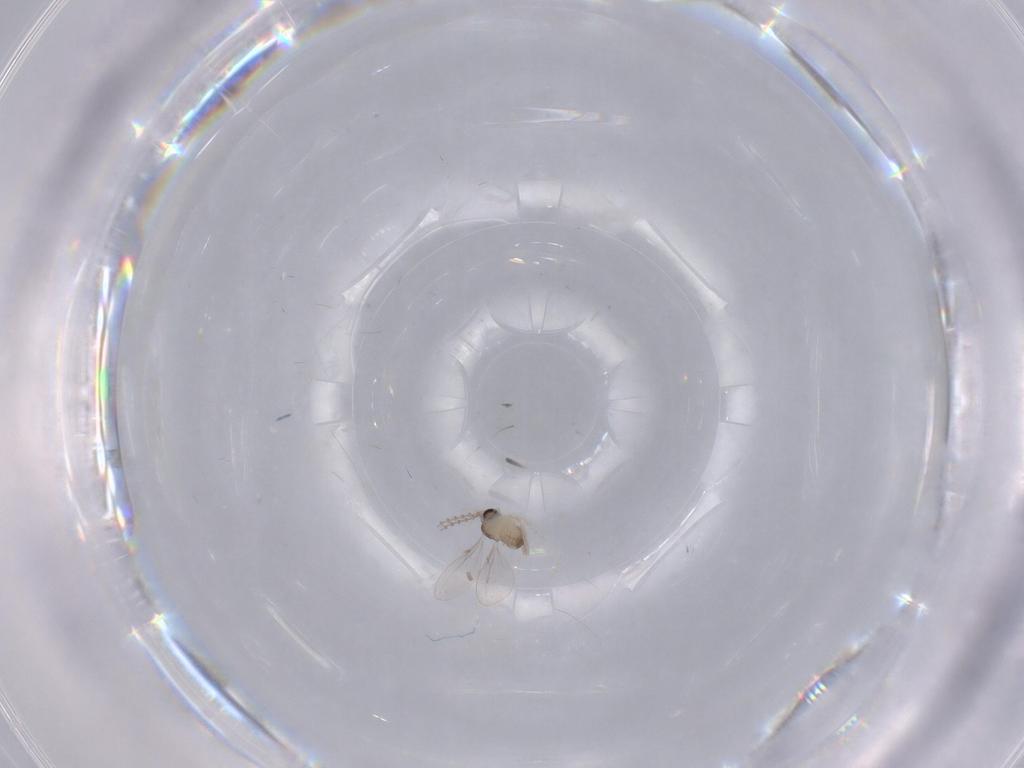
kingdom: Animalia
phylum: Arthropoda
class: Insecta
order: Diptera
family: Cecidomyiidae
